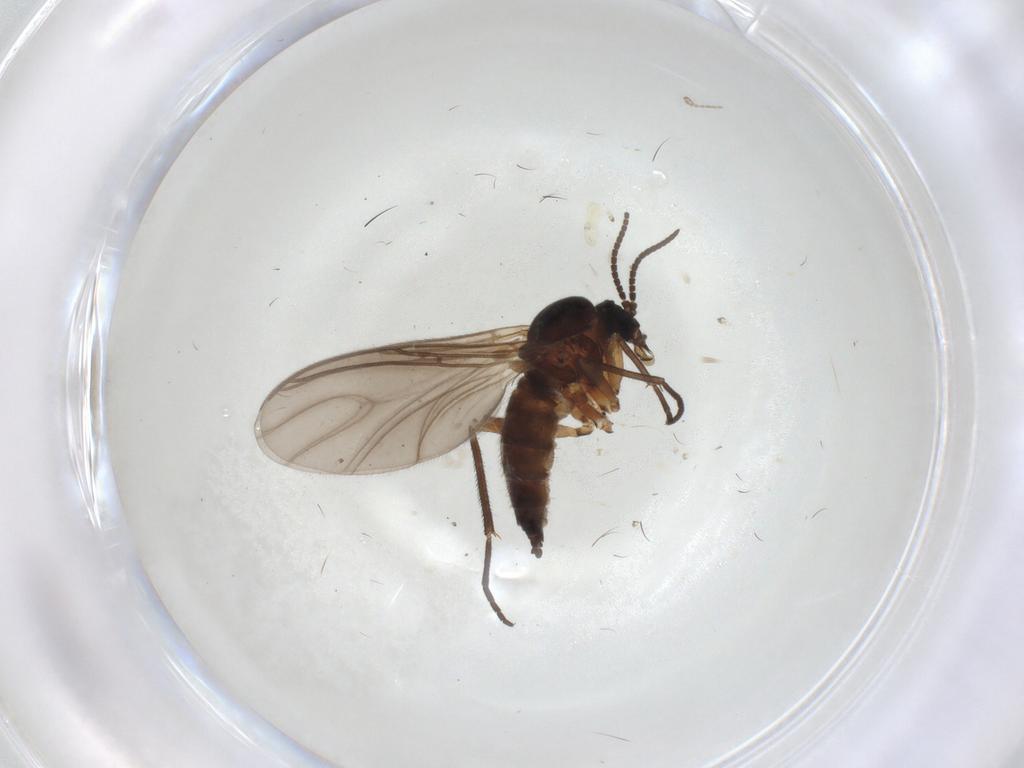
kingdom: Animalia
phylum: Arthropoda
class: Insecta
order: Diptera
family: Sciaridae
